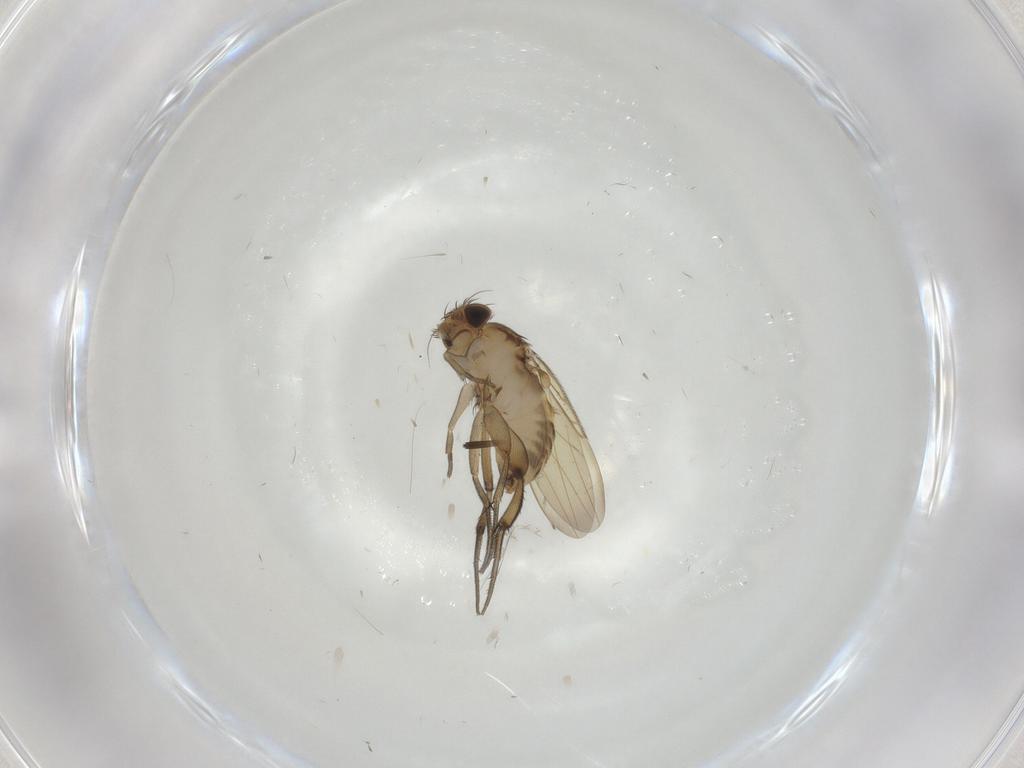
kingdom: Animalia
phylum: Arthropoda
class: Insecta
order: Diptera
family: Phoridae
